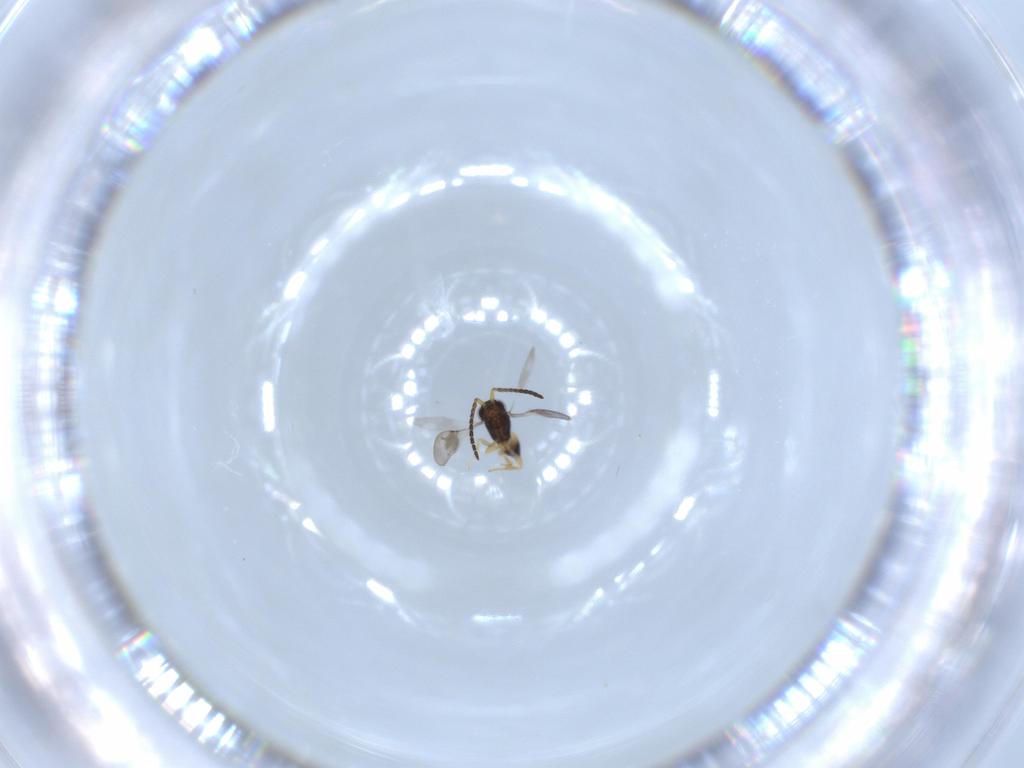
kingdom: Animalia
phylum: Arthropoda
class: Insecta
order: Hymenoptera
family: Ceraphronidae
